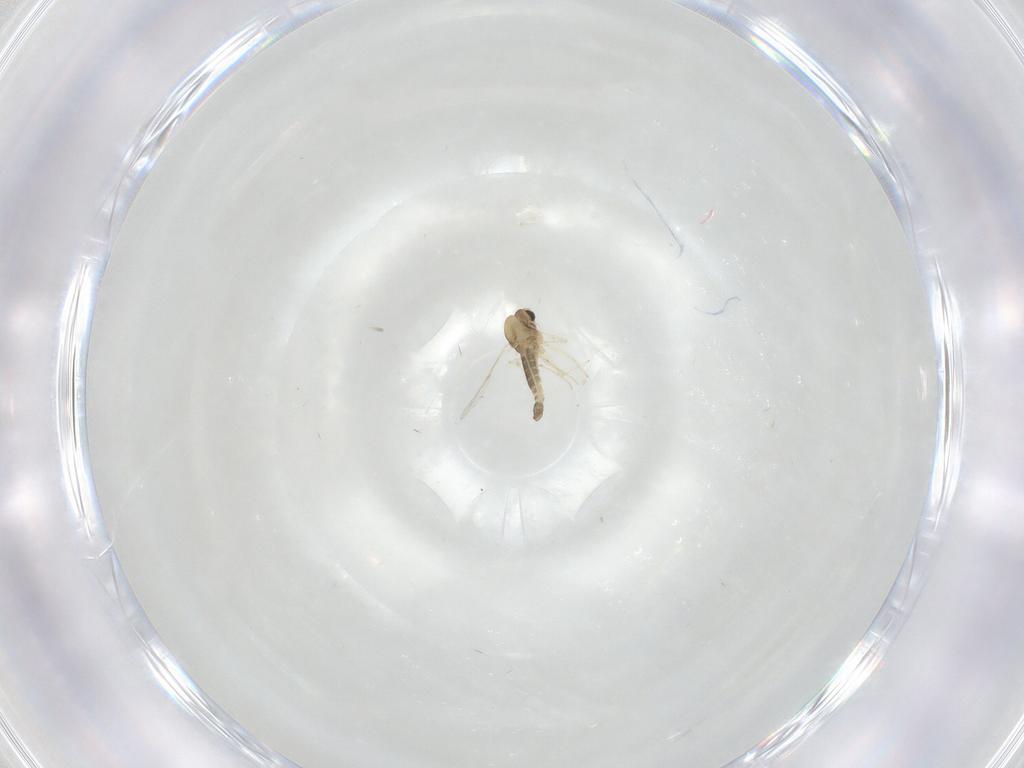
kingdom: Animalia
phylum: Arthropoda
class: Insecta
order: Diptera
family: Chironomidae
